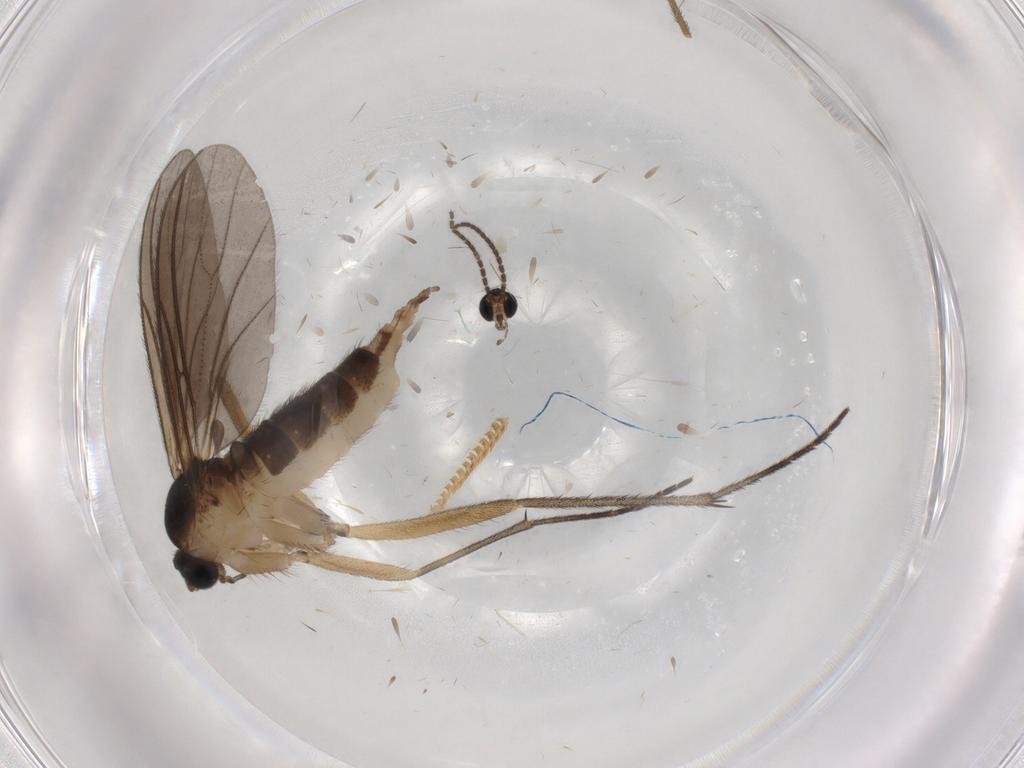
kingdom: Animalia
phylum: Arthropoda
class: Insecta
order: Diptera
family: Sciaridae
